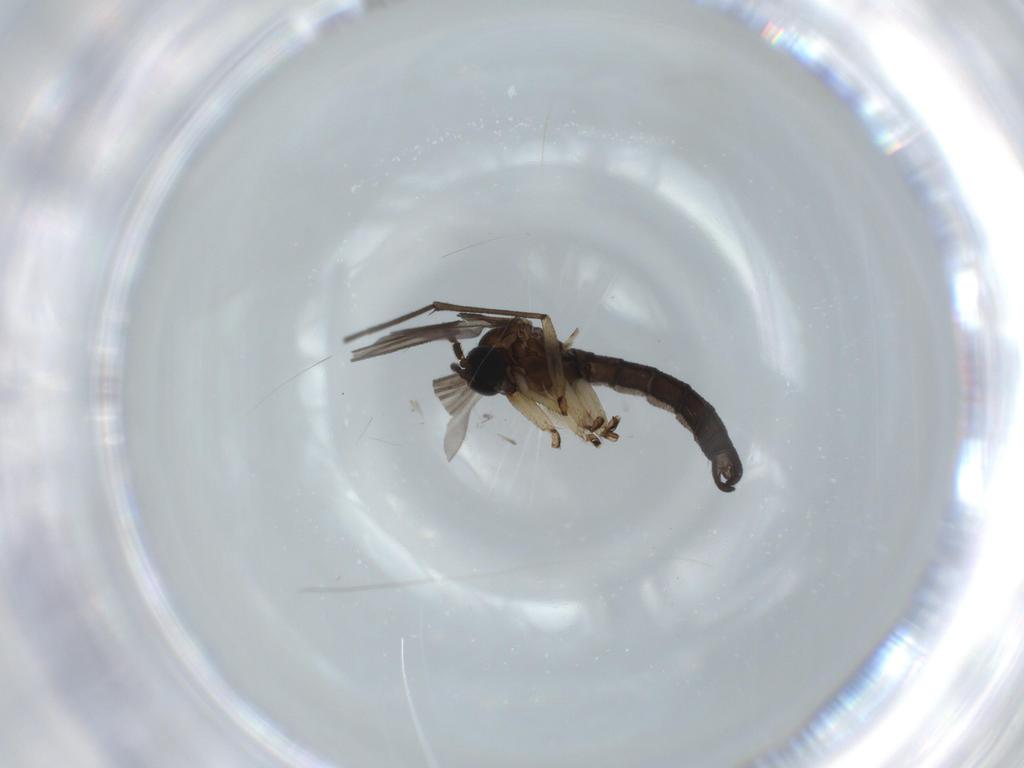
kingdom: Animalia
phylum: Arthropoda
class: Insecta
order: Diptera
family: Sciaridae
